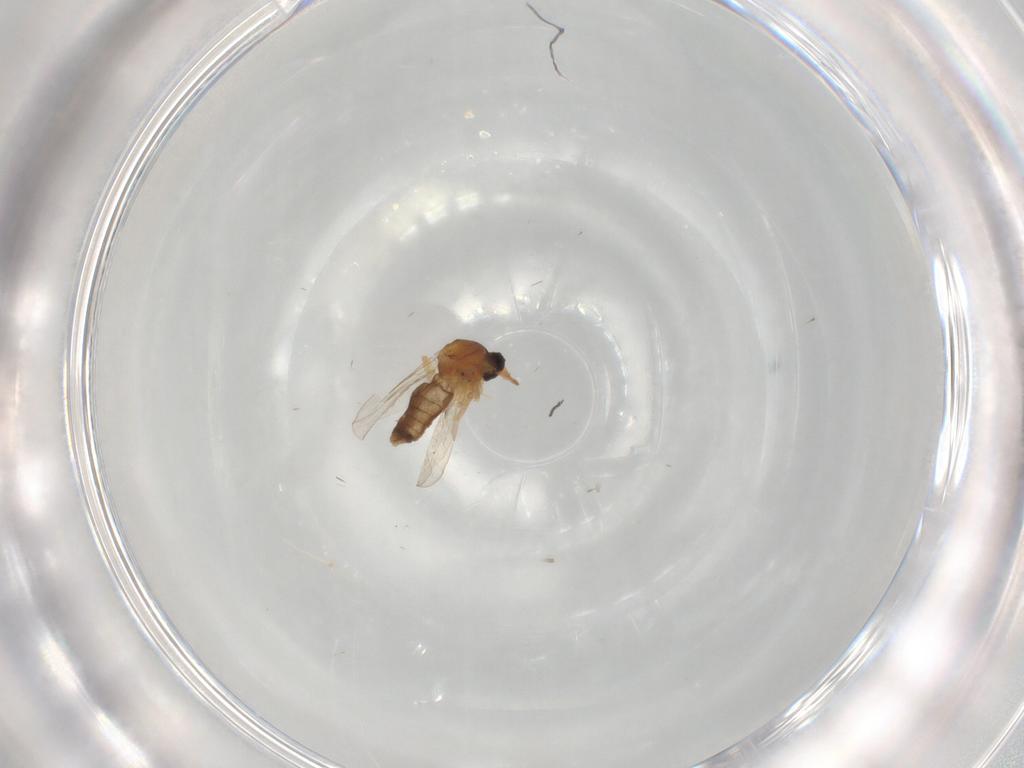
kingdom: Animalia
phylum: Arthropoda
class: Insecta
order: Diptera
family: Ceratopogonidae
